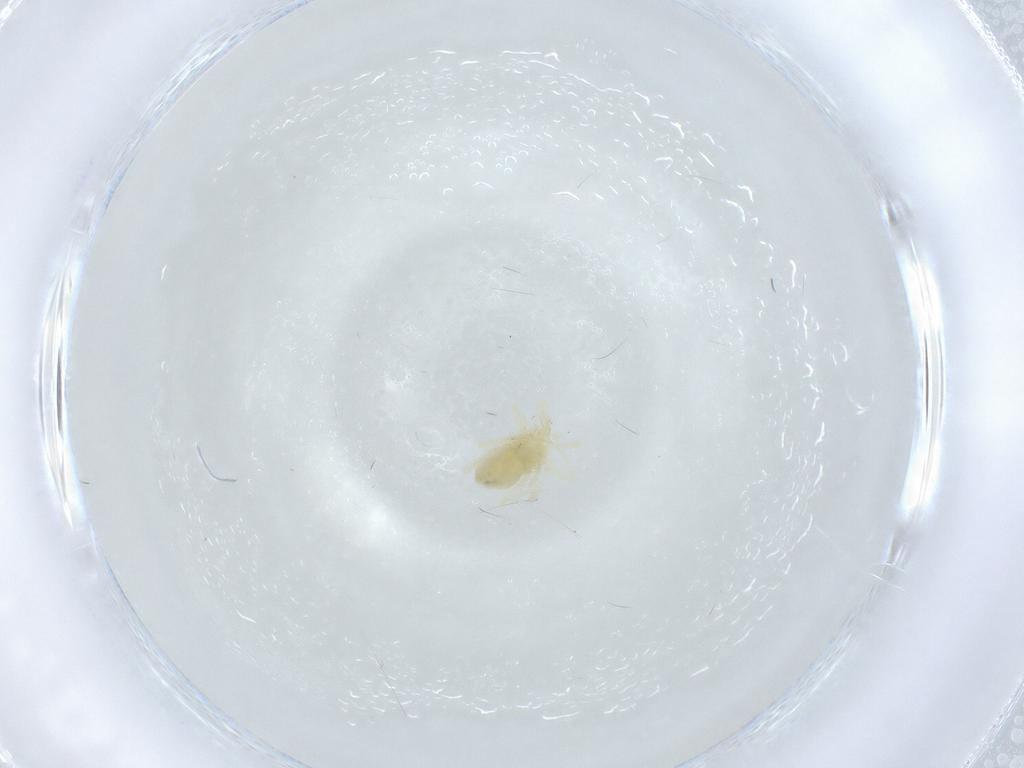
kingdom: Animalia
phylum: Arthropoda
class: Arachnida
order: Trombidiformes
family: Anystidae
